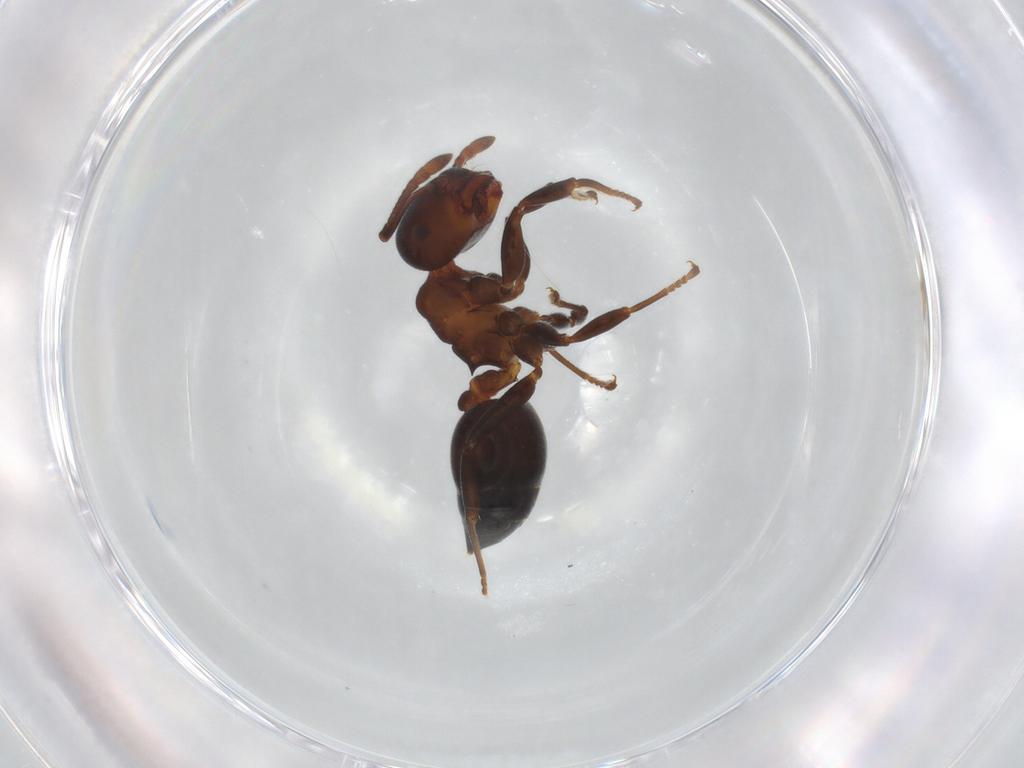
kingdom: Animalia
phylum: Arthropoda
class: Insecta
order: Hymenoptera
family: Formicidae
